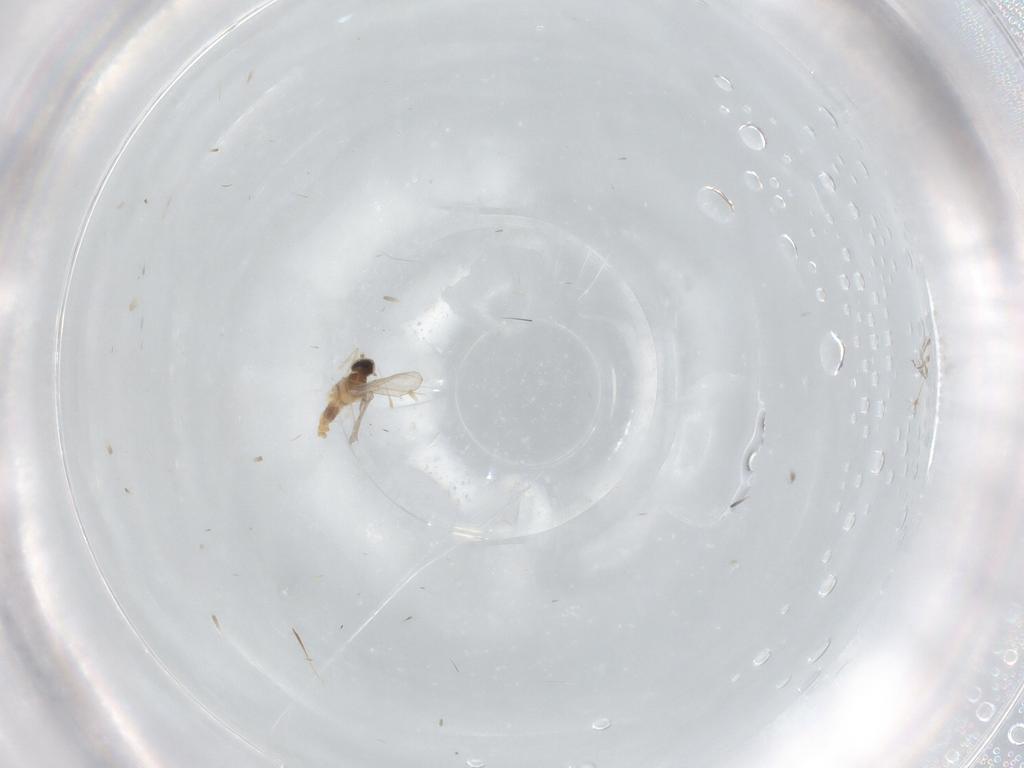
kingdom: Animalia
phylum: Arthropoda
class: Insecta
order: Diptera
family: Cecidomyiidae
